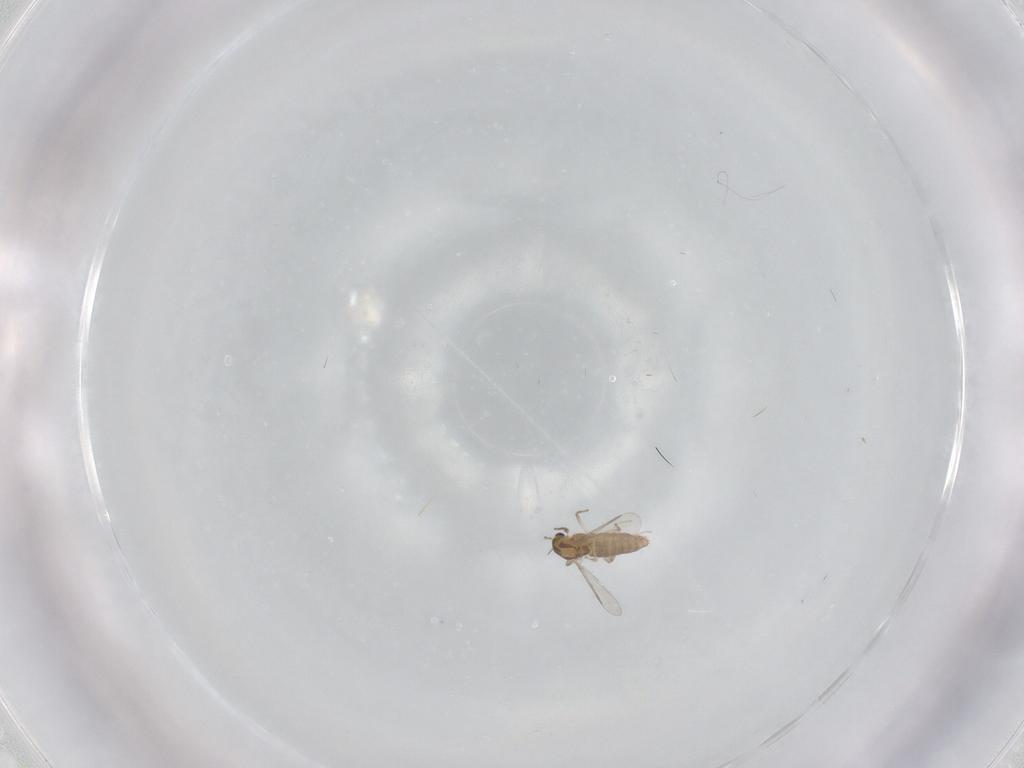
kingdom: Animalia
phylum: Arthropoda
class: Insecta
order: Diptera
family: Chironomidae
